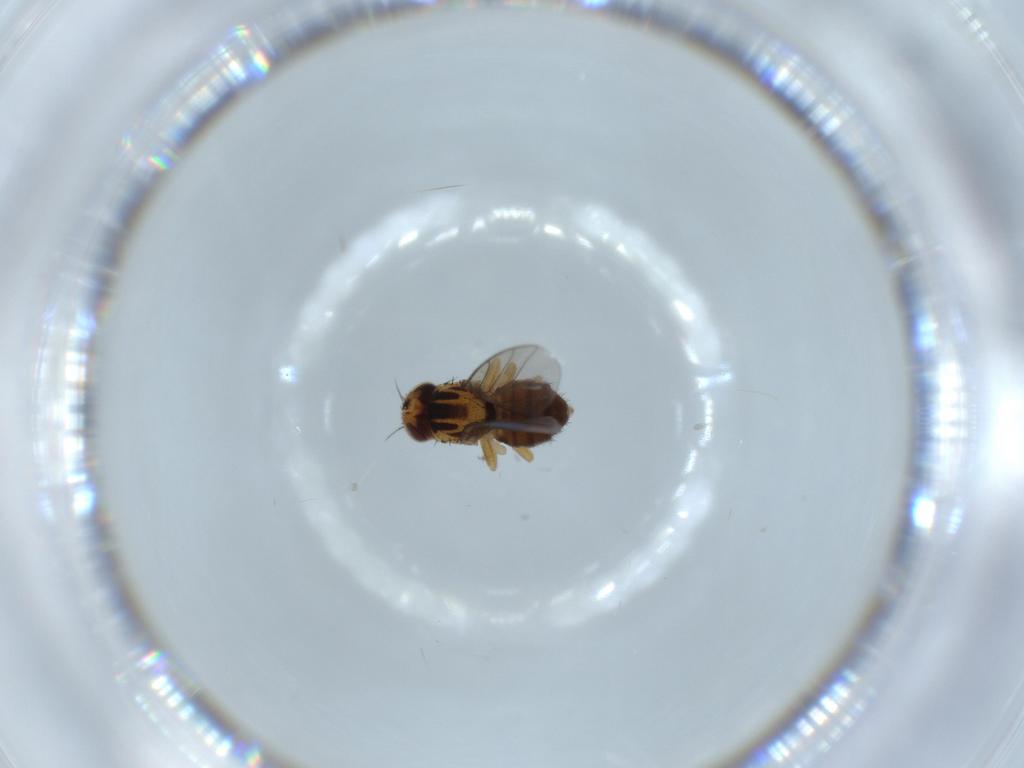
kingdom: Animalia
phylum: Arthropoda
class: Insecta
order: Diptera
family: Chloropidae
